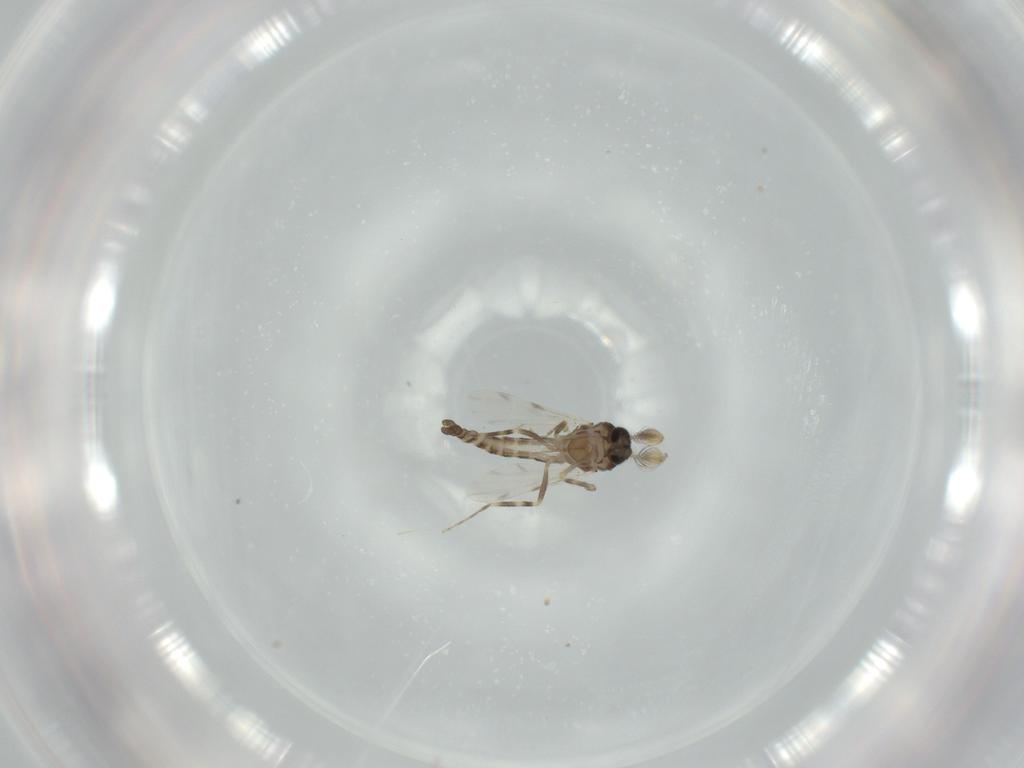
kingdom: Animalia
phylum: Arthropoda
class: Insecta
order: Diptera
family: Ceratopogonidae
